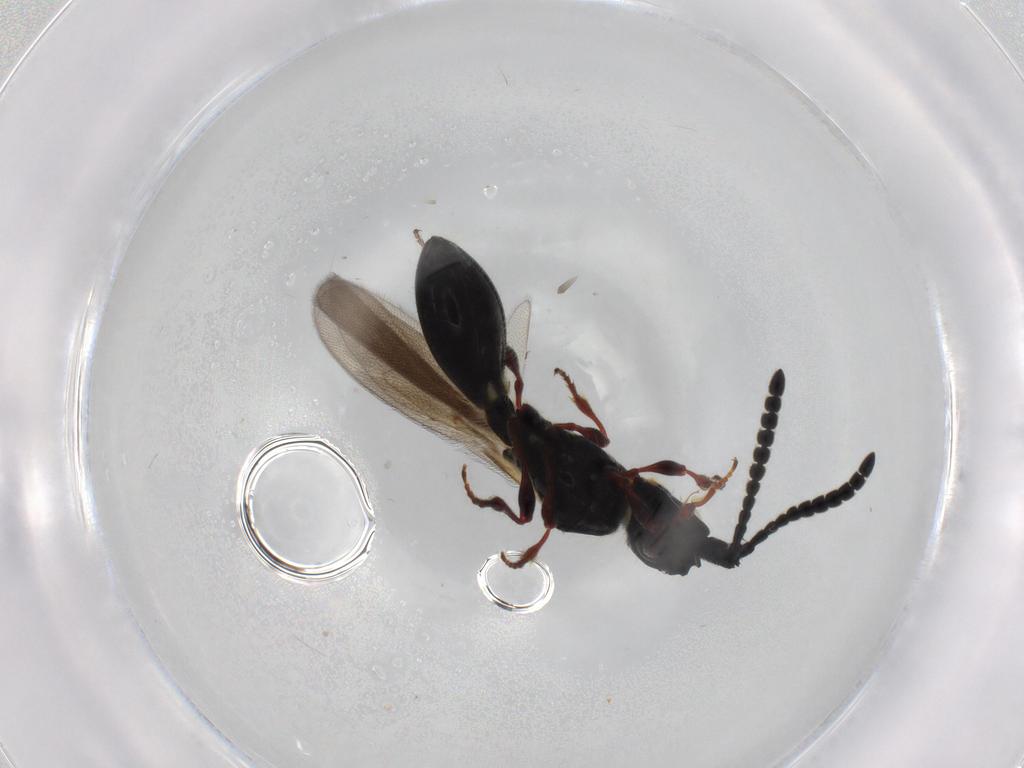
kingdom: Animalia
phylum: Arthropoda
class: Insecta
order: Hymenoptera
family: Diapriidae
